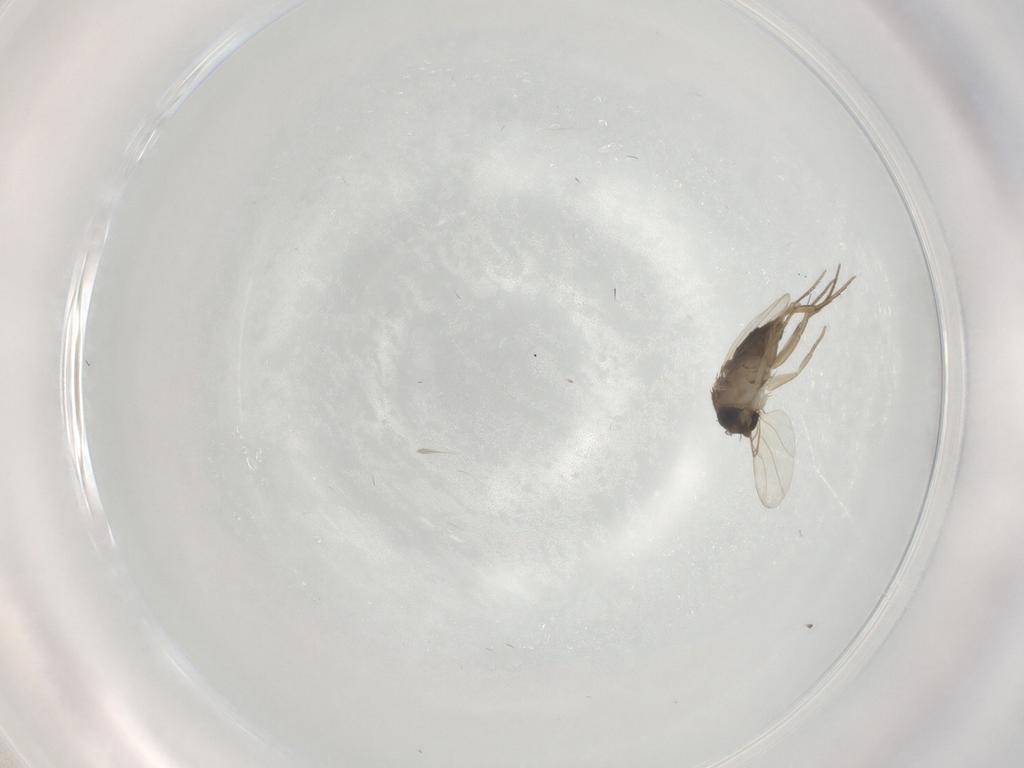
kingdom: Animalia
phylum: Arthropoda
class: Insecta
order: Diptera
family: Phoridae
